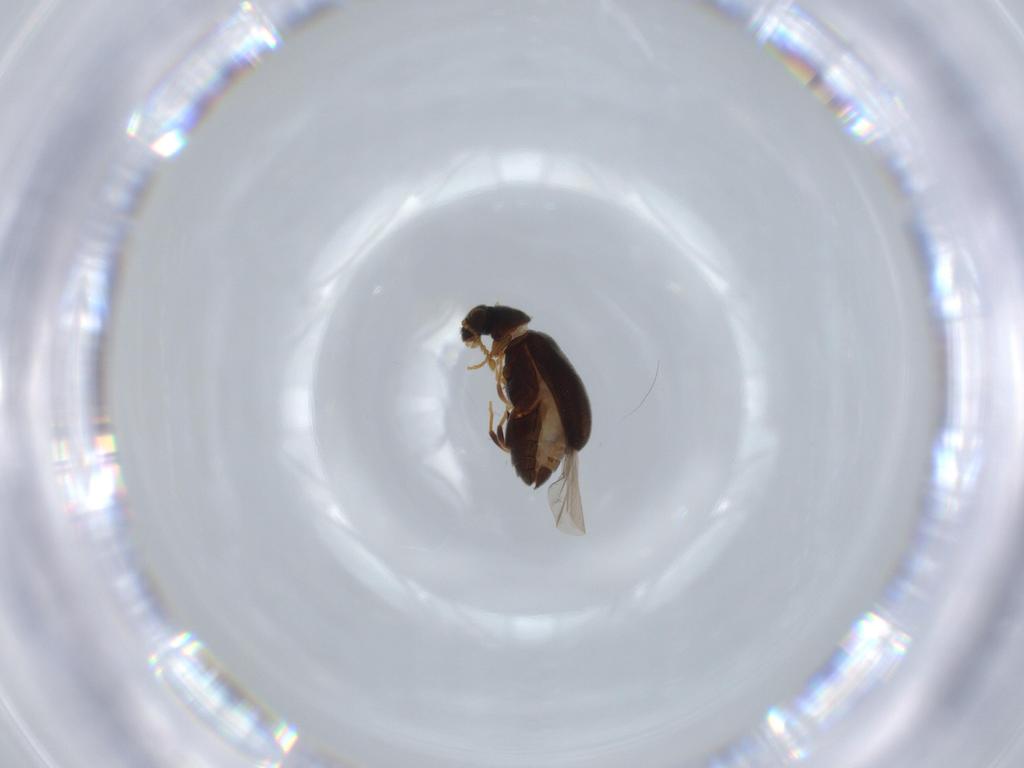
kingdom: Animalia
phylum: Arthropoda
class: Insecta
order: Coleoptera
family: Aderidae
